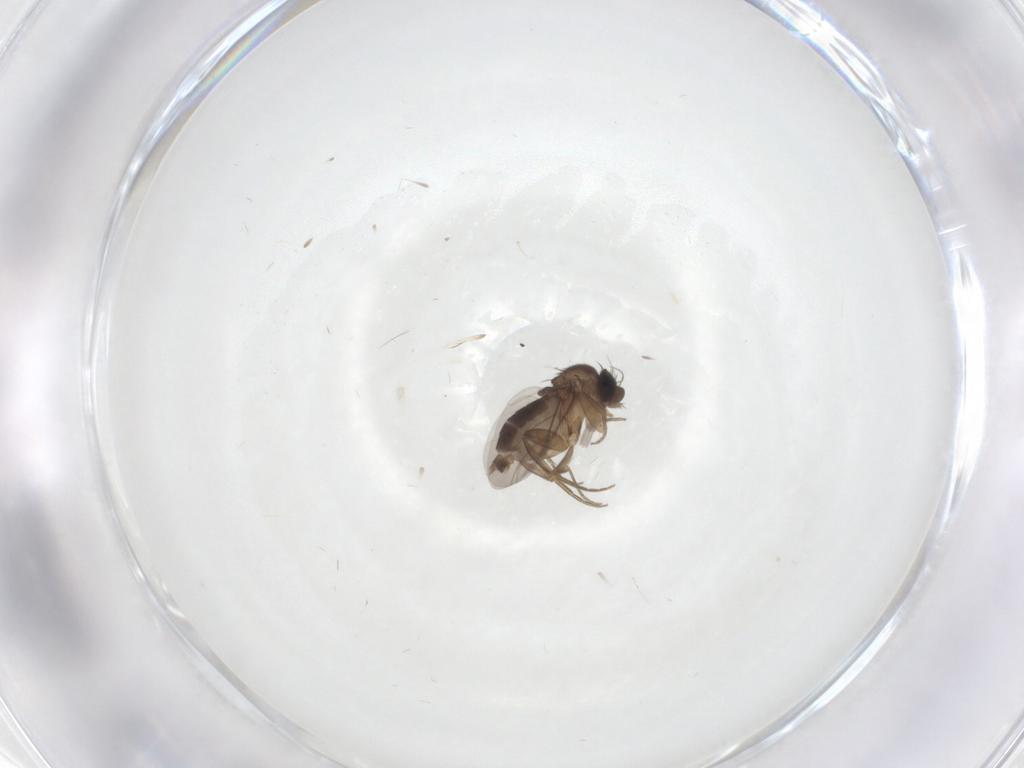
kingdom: Animalia
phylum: Arthropoda
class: Insecta
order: Diptera
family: Phoridae
